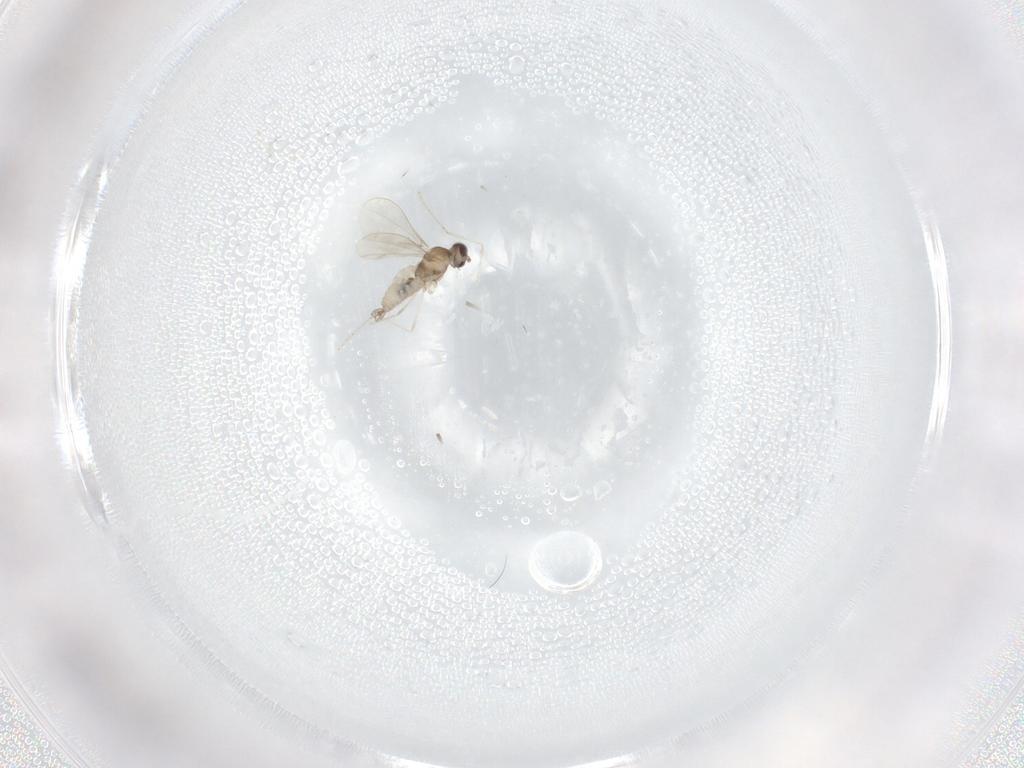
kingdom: Animalia
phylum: Arthropoda
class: Insecta
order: Diptera
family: Cecidomyiidae
